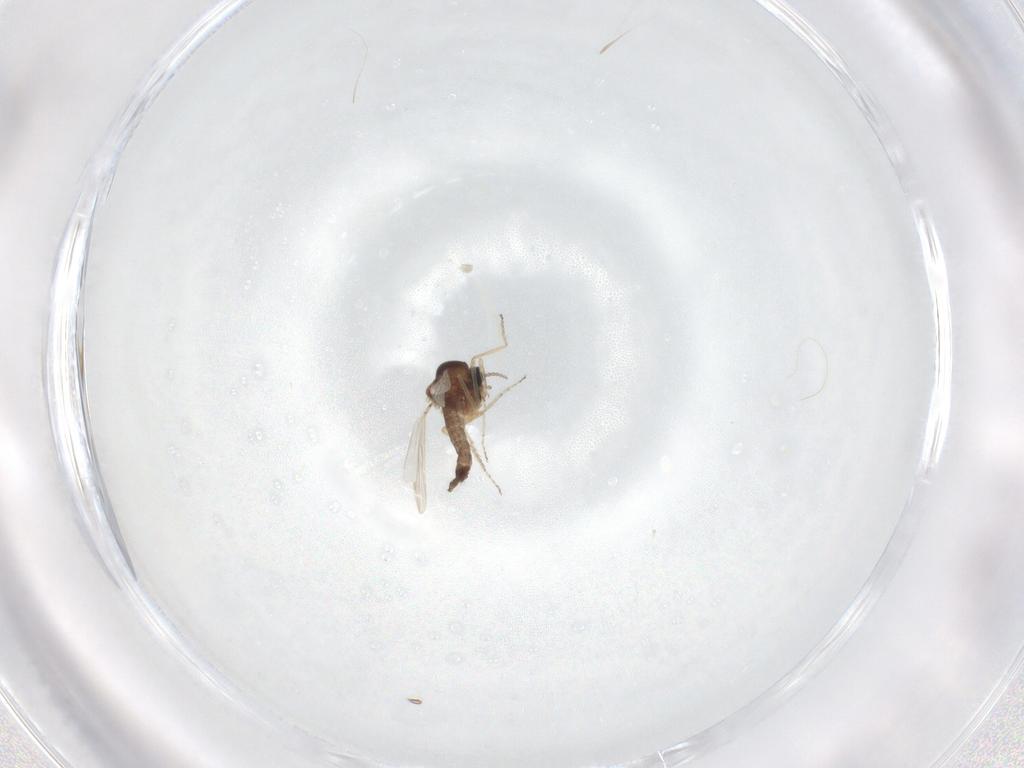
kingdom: Animalia
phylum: Arthropoda
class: Insecta
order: Diptera
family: Ceratopogonidae
